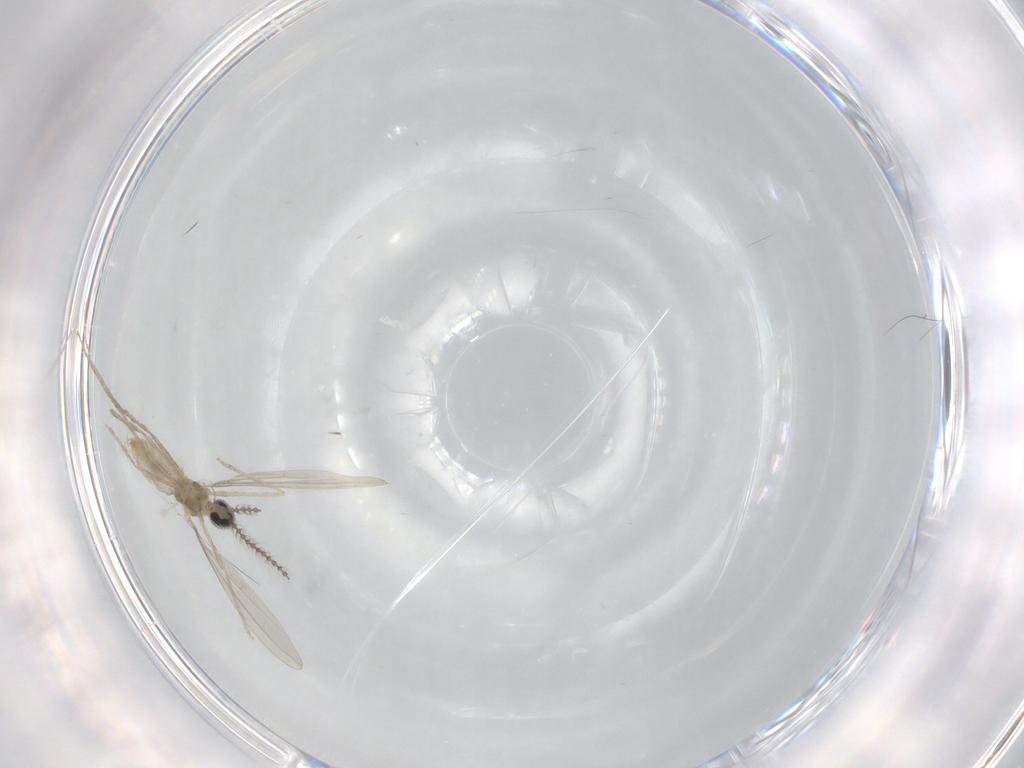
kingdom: Animalia
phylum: Arthropoda
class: Insecta
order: Diptera
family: Cecidomyiidae
